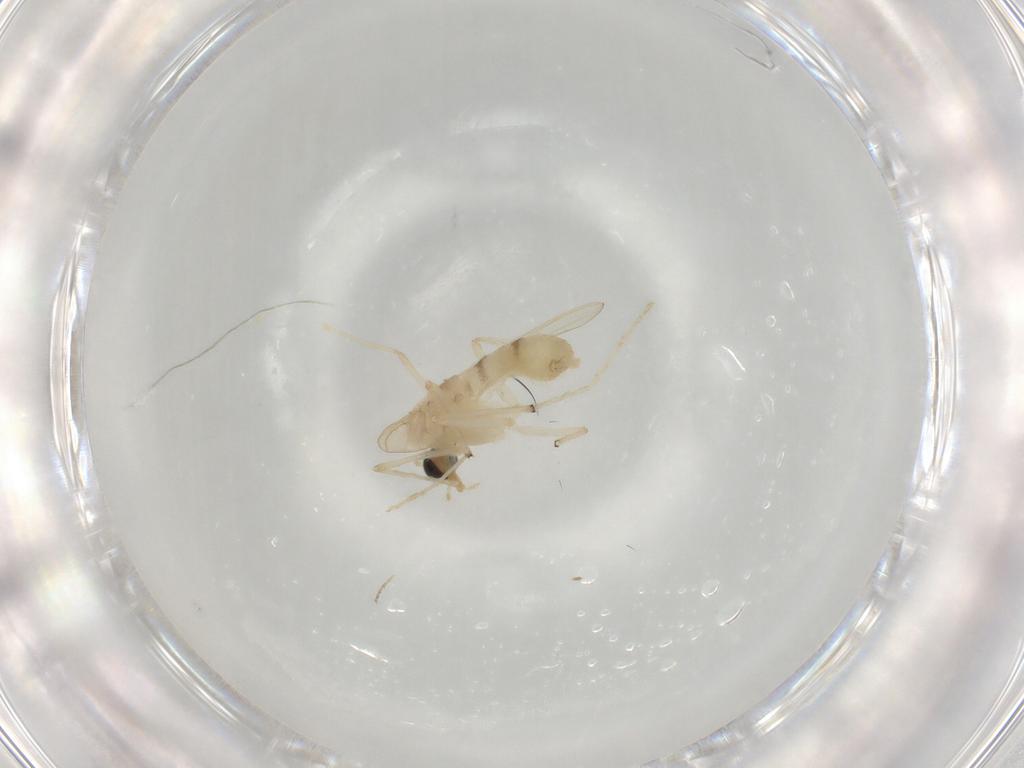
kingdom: Animalia
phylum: Arthropoda
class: Insecta
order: Diptera
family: Chironomidae
